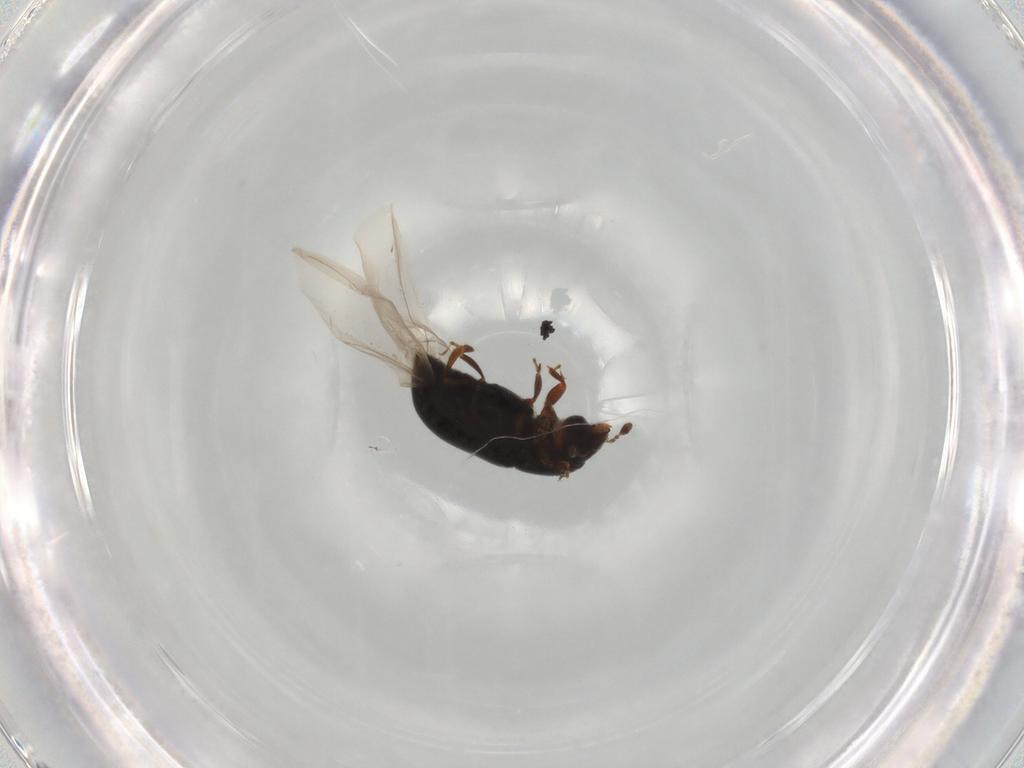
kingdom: Animalia
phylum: Arthropoda
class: Insecta
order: Coleoptera
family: Curculionidae
